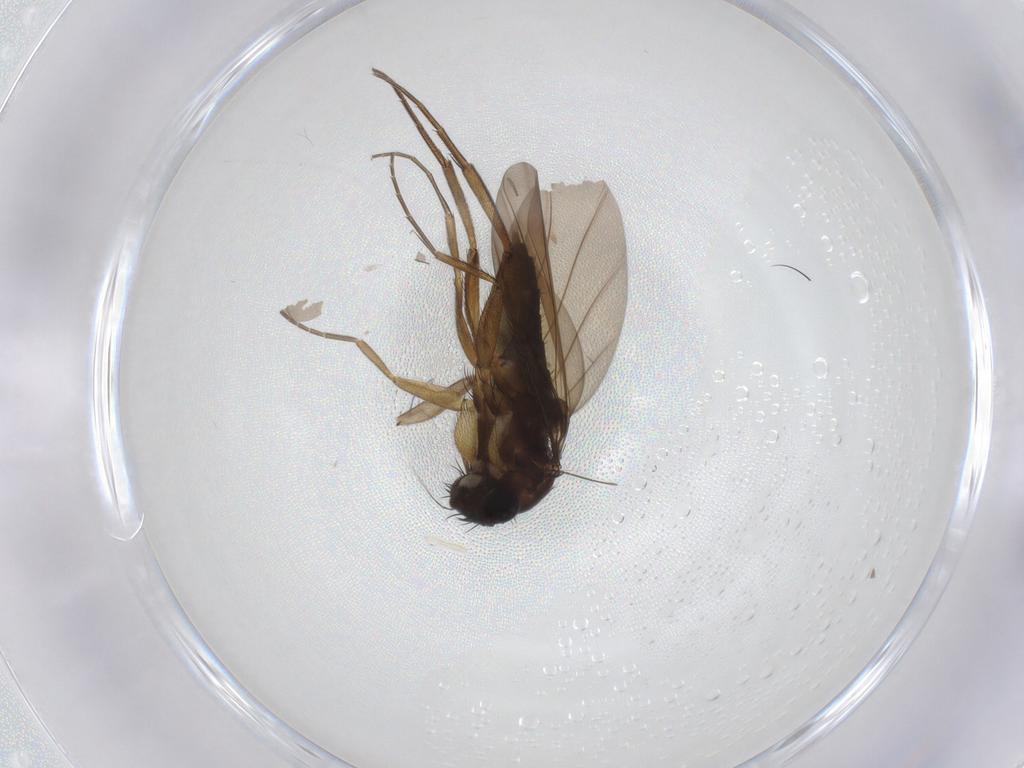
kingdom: Animalia
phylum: Arthropoda
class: Insecta
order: Diptera
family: Phoridae
